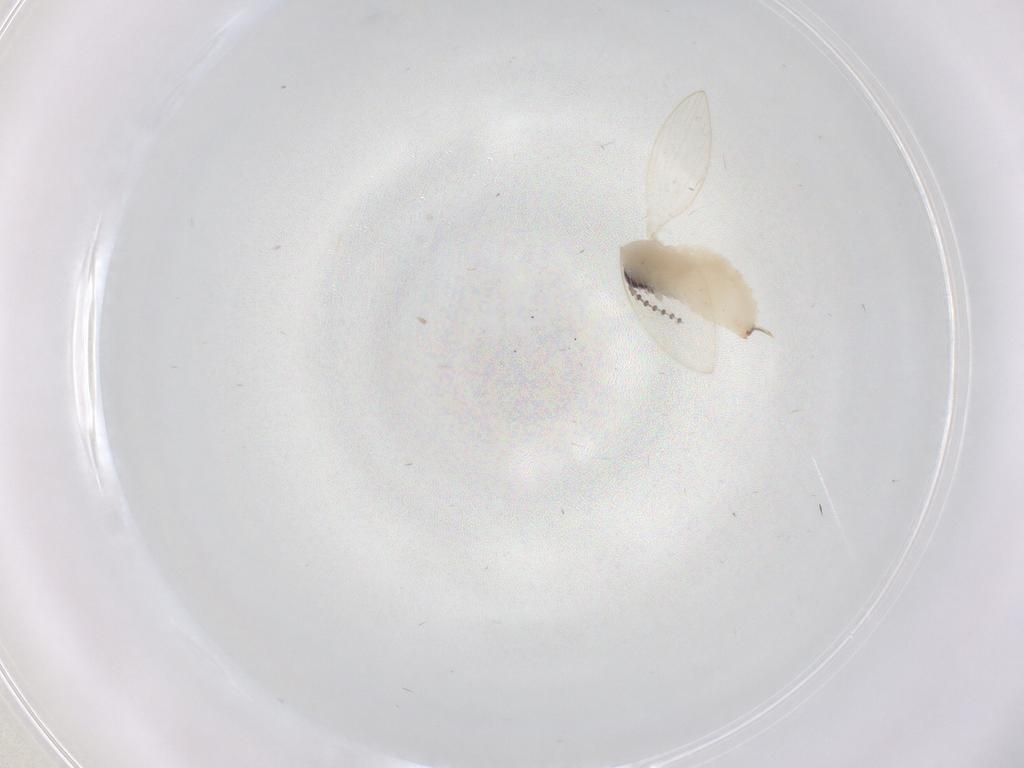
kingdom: Animalia
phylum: Arthropoda
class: Insecta
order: Diptera
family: Psychodidae
